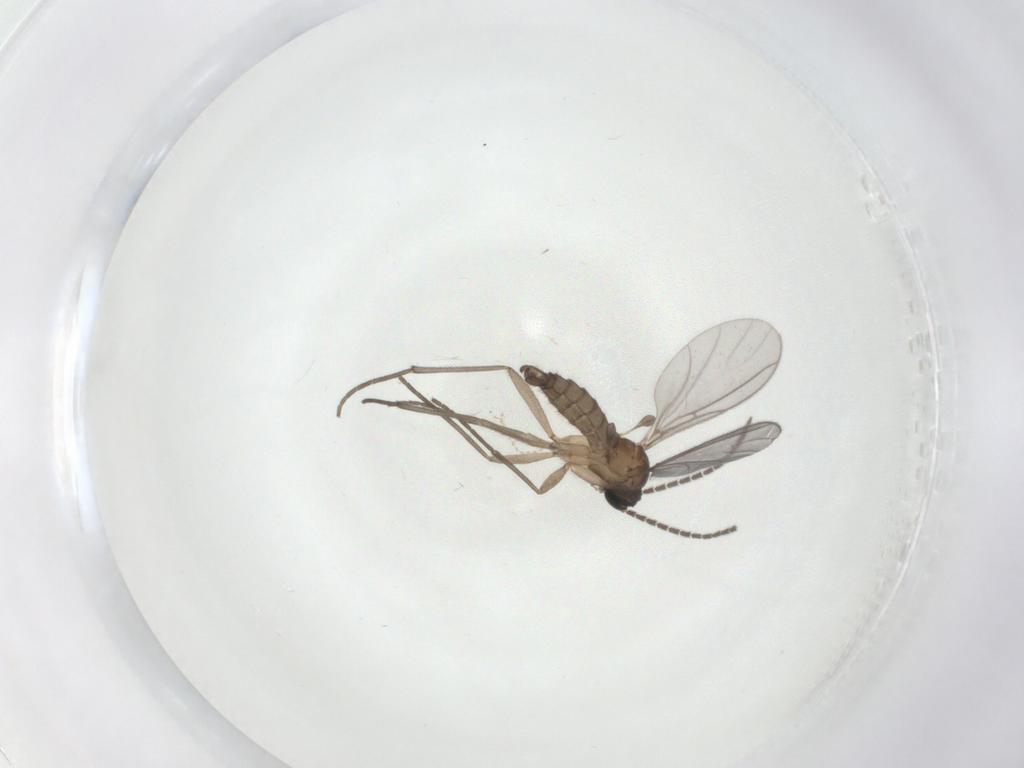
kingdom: Animalia
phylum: Arthropoda
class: Insecta
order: Diptera
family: Sciaridae
